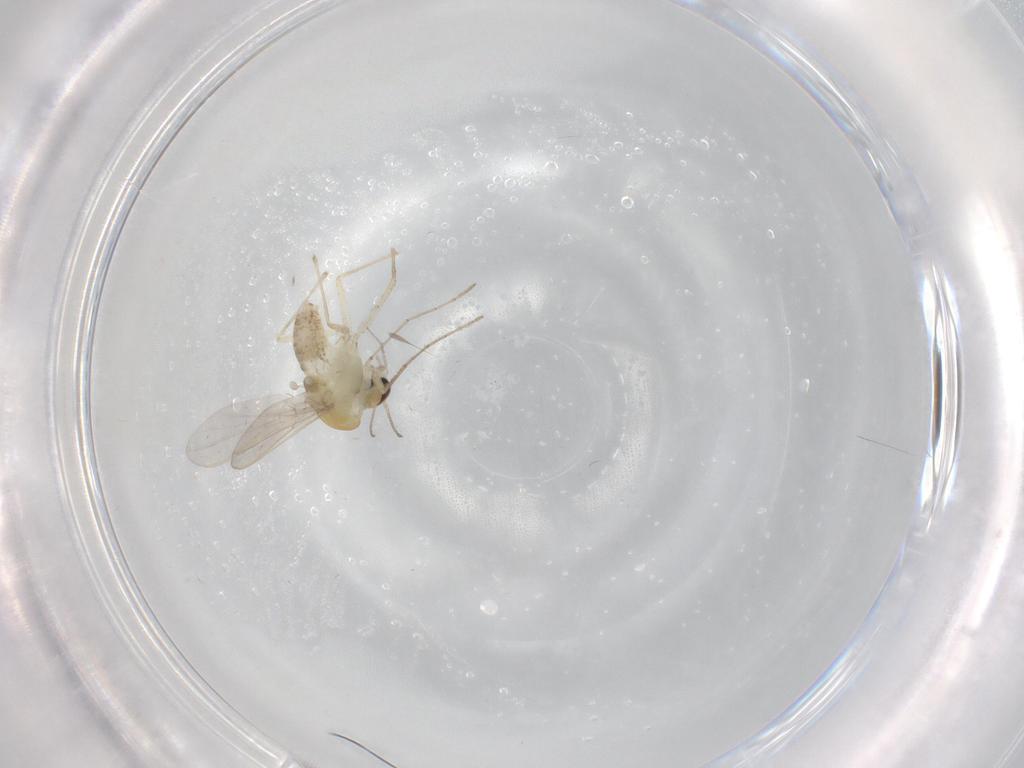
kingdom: Animalia
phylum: Arthropoda
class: Insecta
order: Diptera
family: Chironomidae
